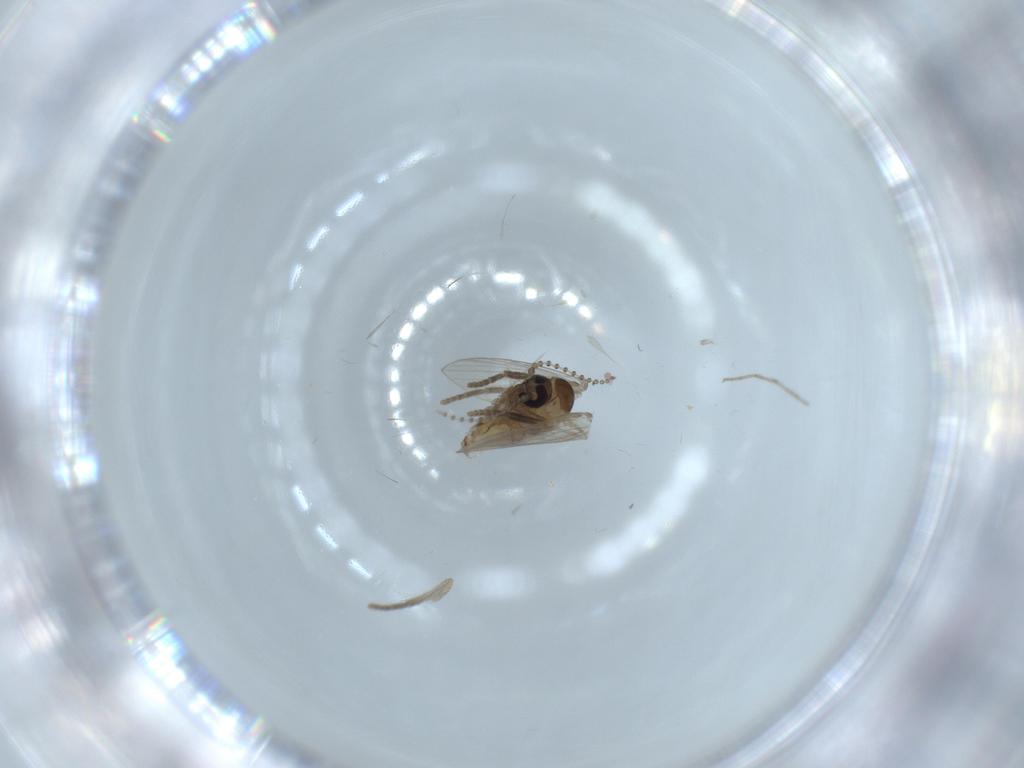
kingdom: Animalia
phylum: Arthropoda
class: Insecta
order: Diptera
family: Psychodidae
